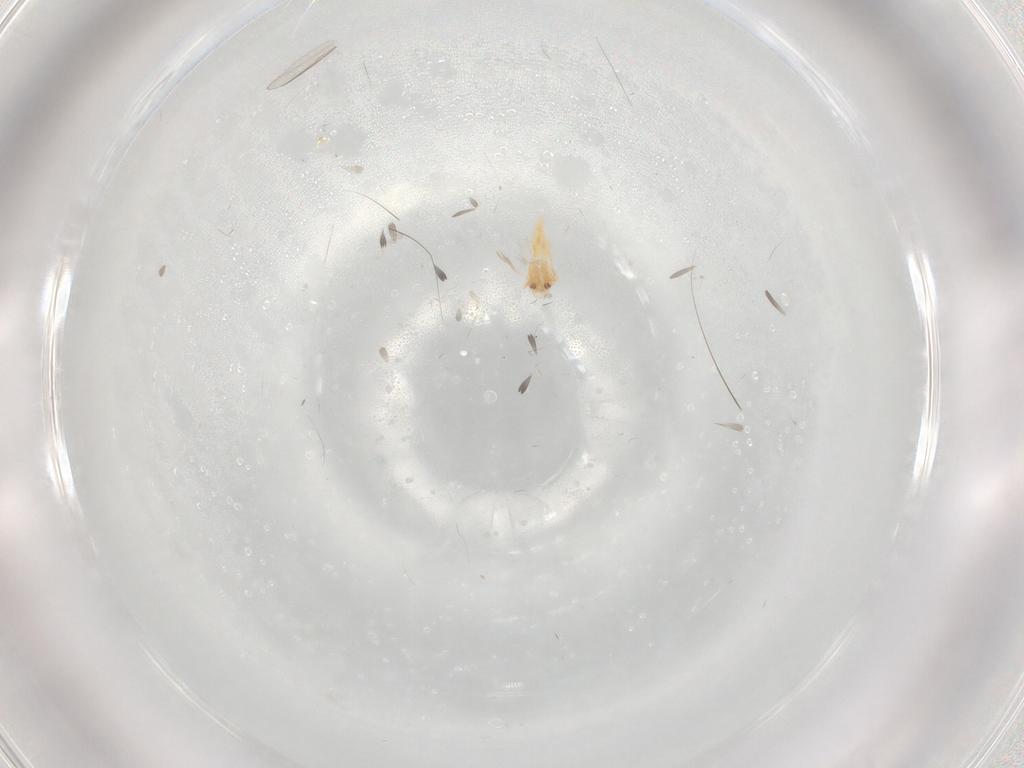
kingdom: Animalia
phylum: Arthropoda
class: Insecta
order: Hemiptera
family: Aleyrodidae
